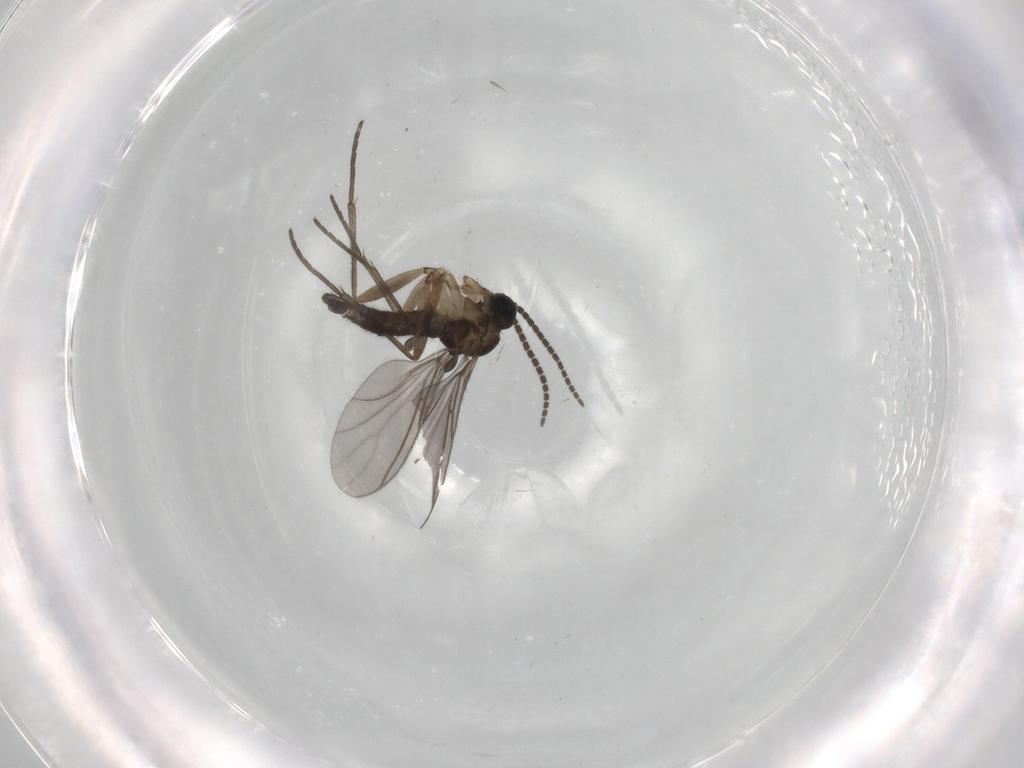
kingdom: Animalia
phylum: Arthropoda
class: Insecta
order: Diptera
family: Sciaridae
